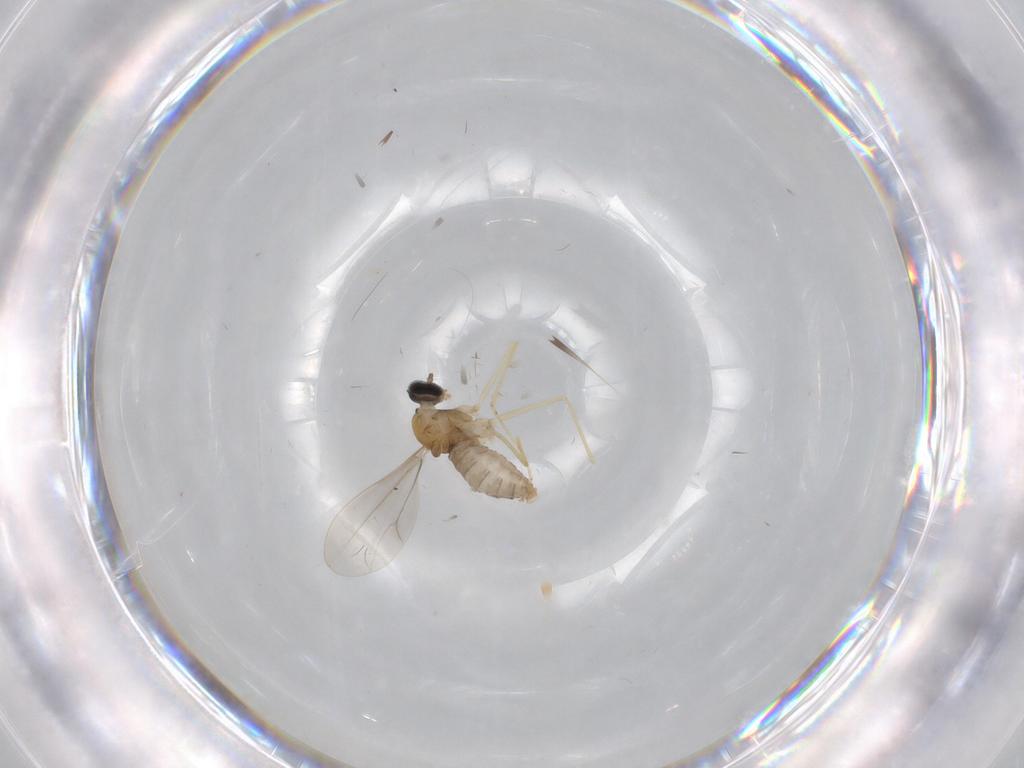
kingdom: Animalia
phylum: Arthropoda
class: Insecta
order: Diptera
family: Cecidomyiidae
